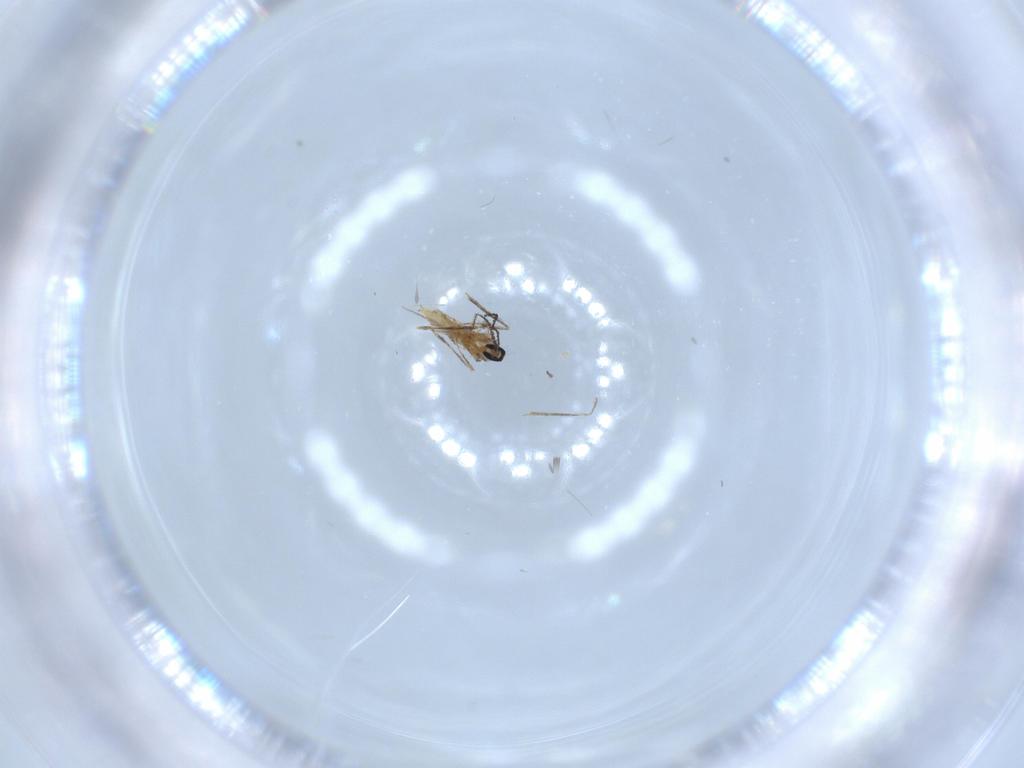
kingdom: Animalia
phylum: Arthropoda
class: Insecta
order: Diptera
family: Cecidomyiidae
